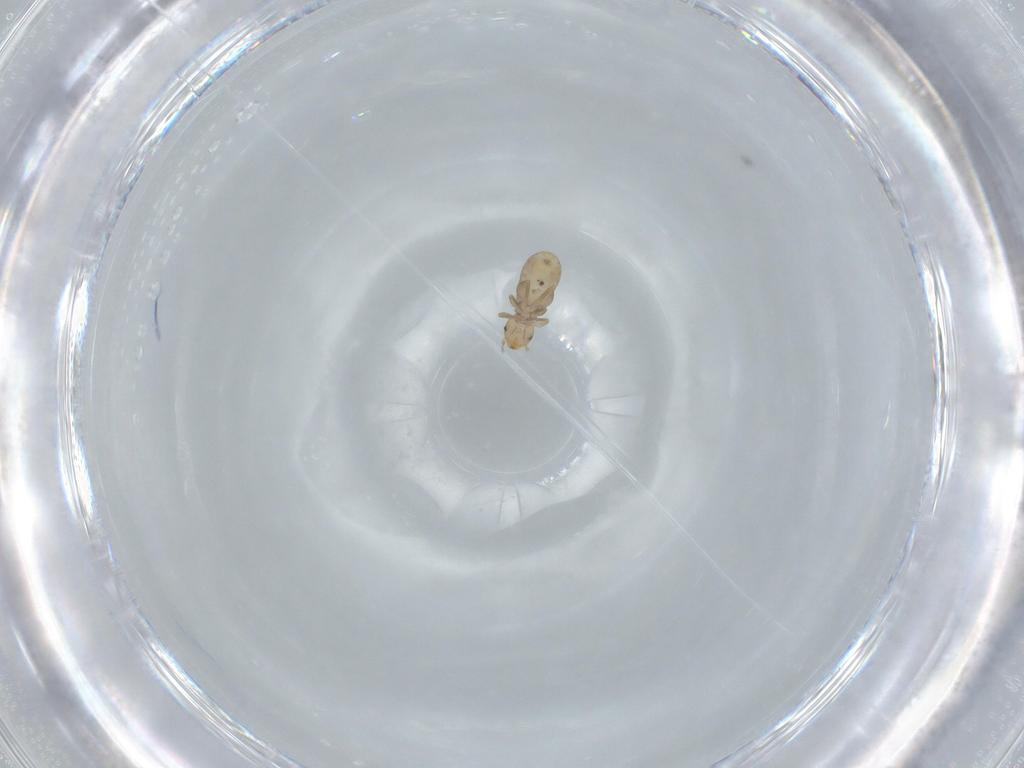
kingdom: Animalia
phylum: Arthropoda
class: Insecta
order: Psocodea
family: Liposcelididae
